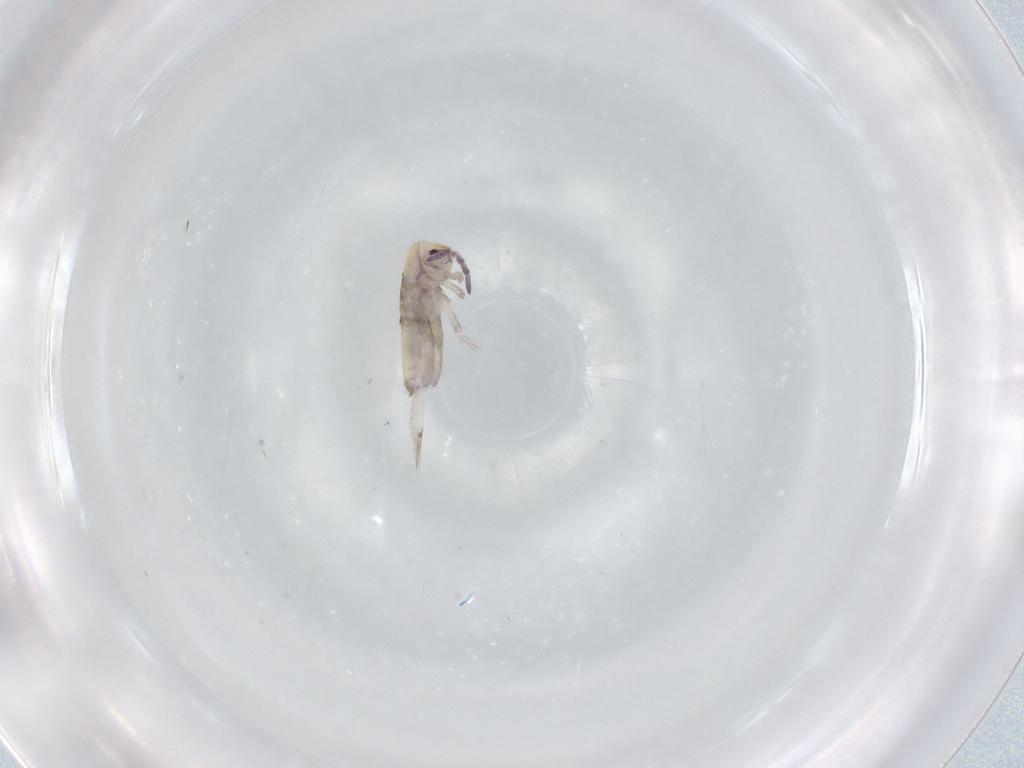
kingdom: Animalia
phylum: Arthropoda
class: Collembola
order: Entomobryomorpha
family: Entomobryidae
